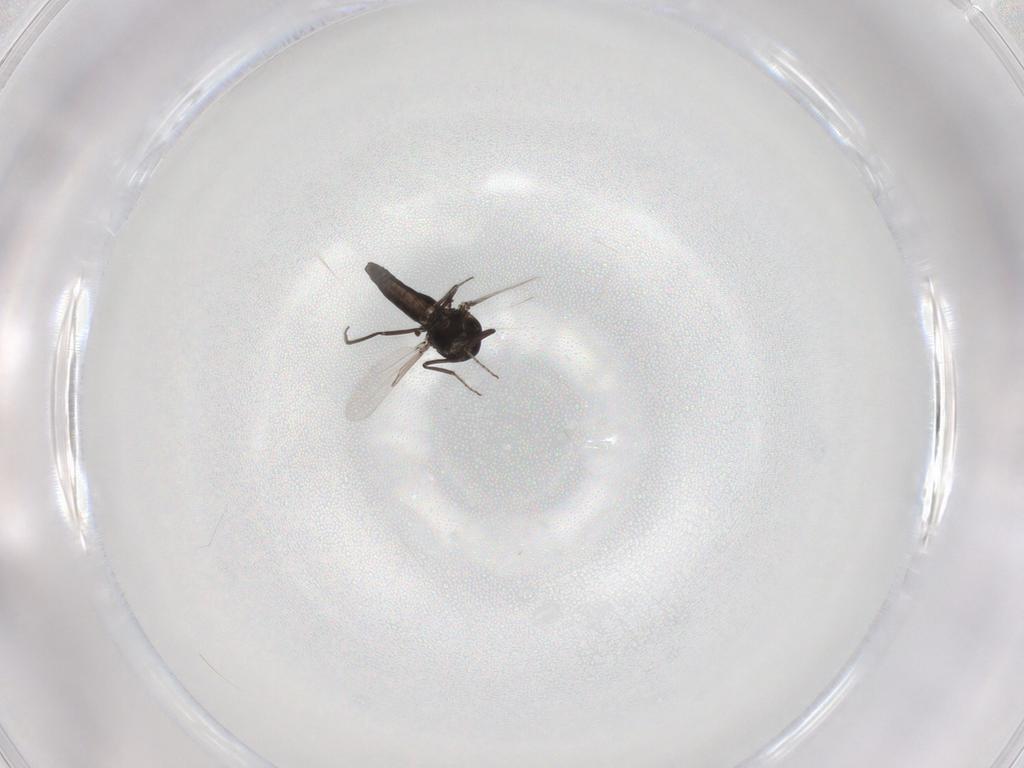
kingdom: Animalia
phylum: Arthropoda
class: Insecta
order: Diptera
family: Ceratopogonidae
